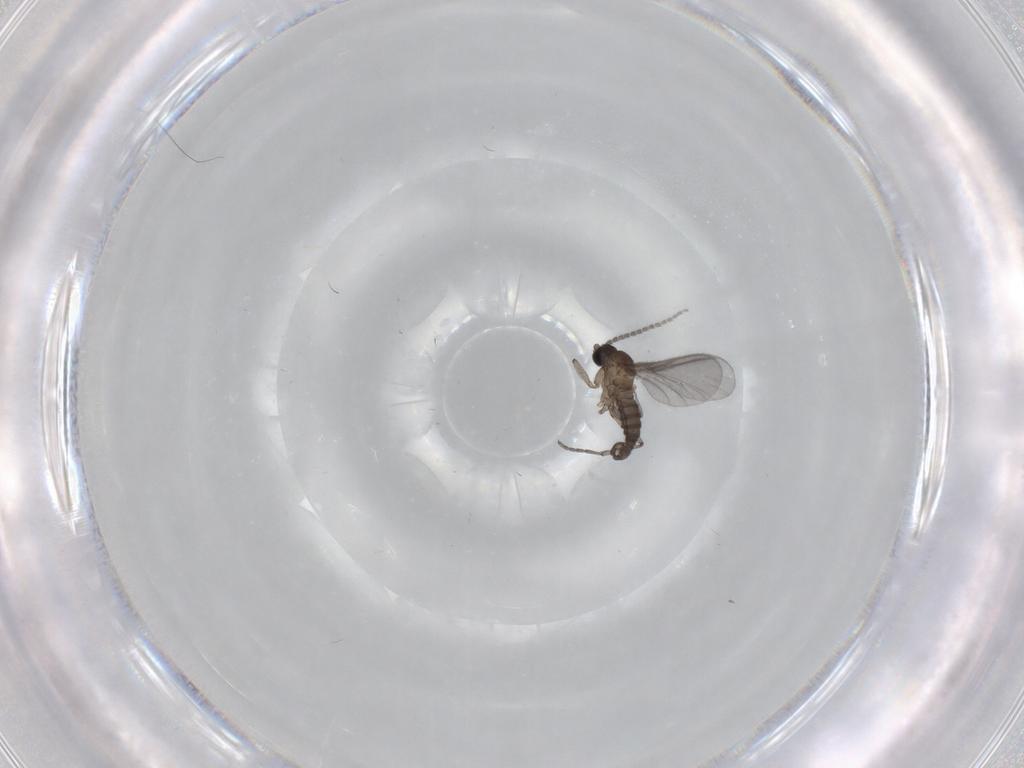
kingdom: Animalia
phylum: Arthropoda
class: Insecta
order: Diptera
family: Sciaridae
